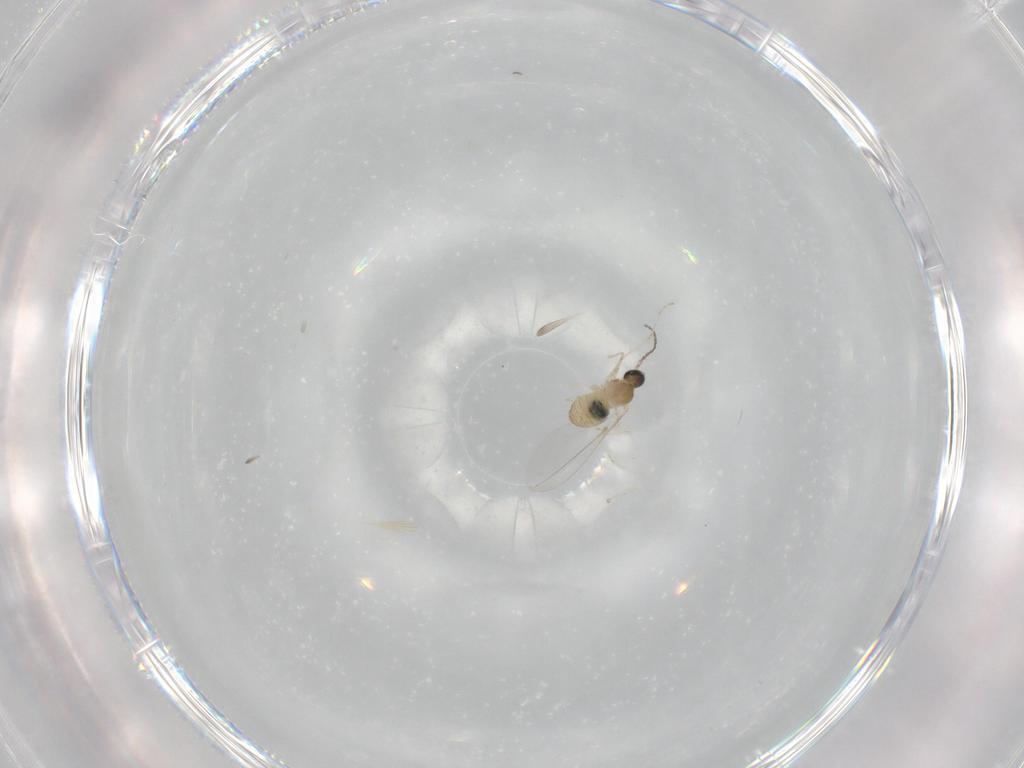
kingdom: Animalia
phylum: Arthropoda
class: Insecta
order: Diptera
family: Cecidomyiidae
